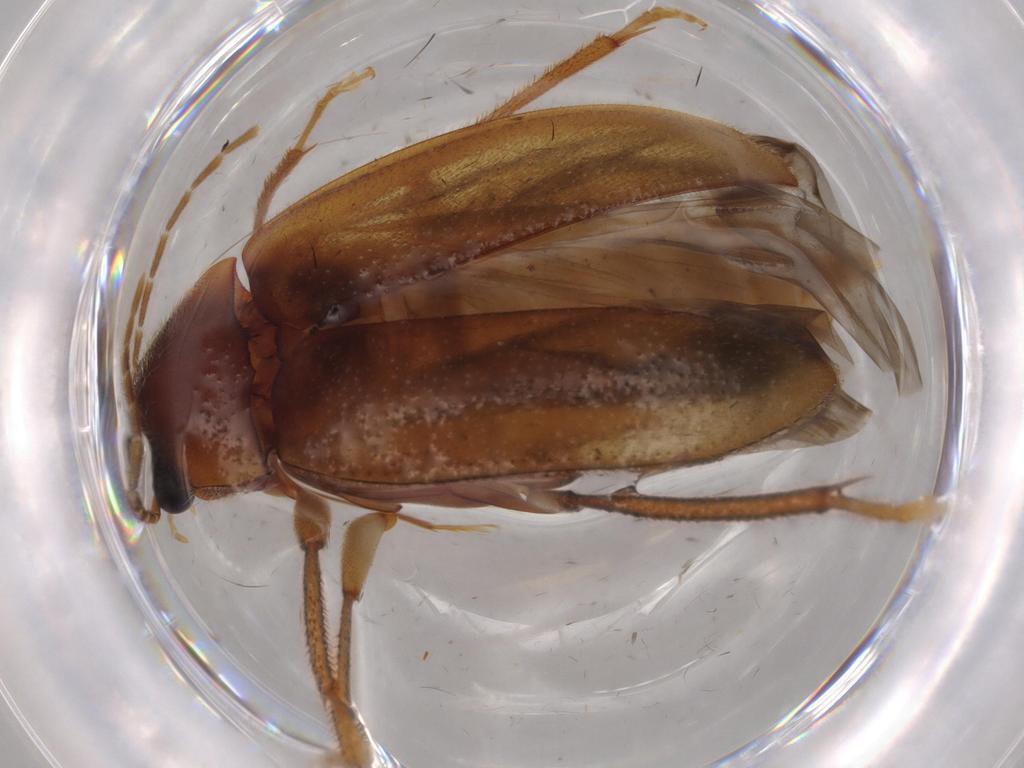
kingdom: Animalia
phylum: Arthropoda
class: Insecta
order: Coleoptera
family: Ptilodactylidae
